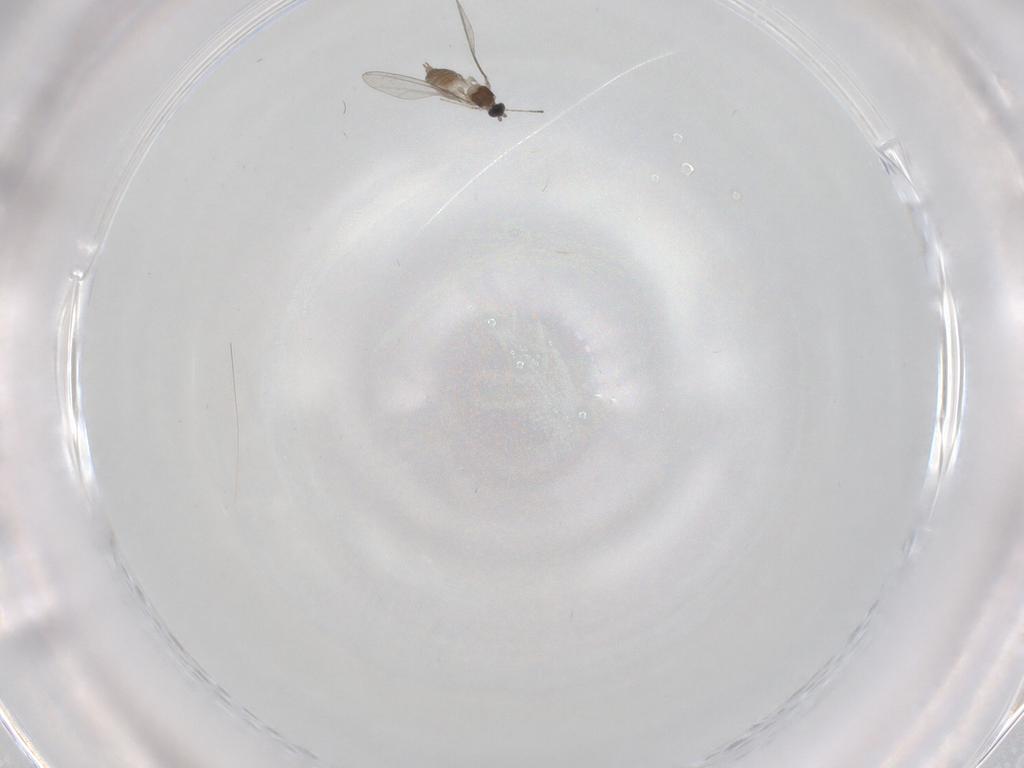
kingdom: Animalia
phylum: Arthropoda
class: Insecta
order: Diptera
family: Cecidomyiidae
